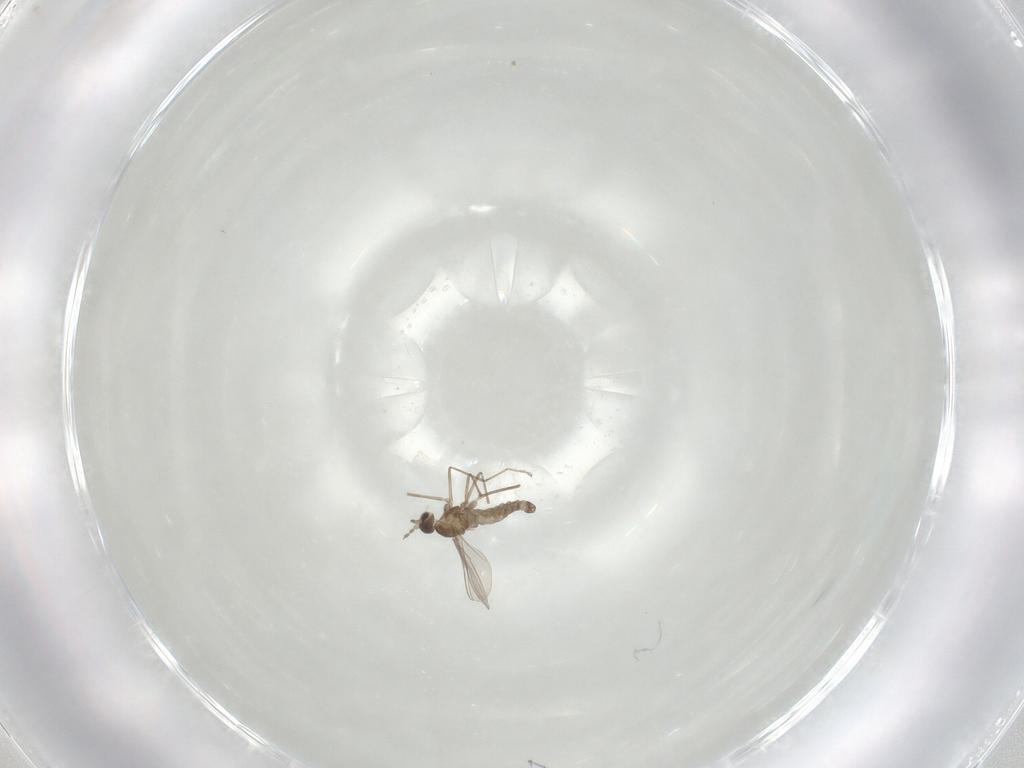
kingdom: Animalia
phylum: Arthropoda
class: Insecta
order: Diptera
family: Cecidomyiidae
